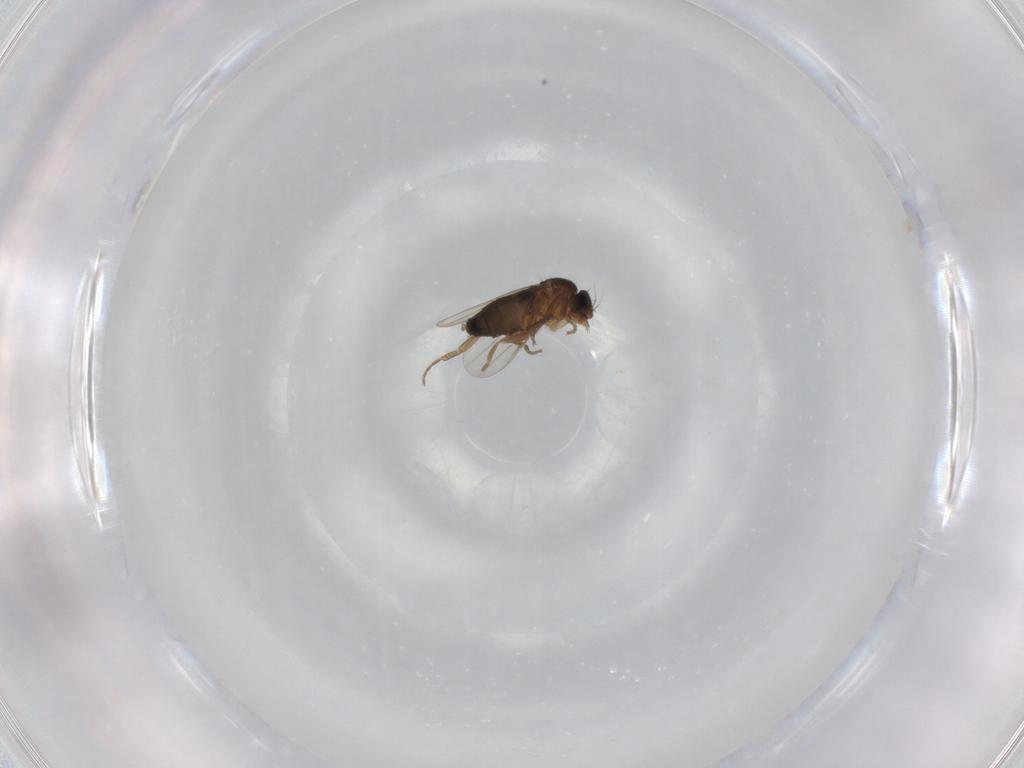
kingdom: Animalia
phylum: Arthropoda
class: Insecta
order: Diptera
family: Phoridae
